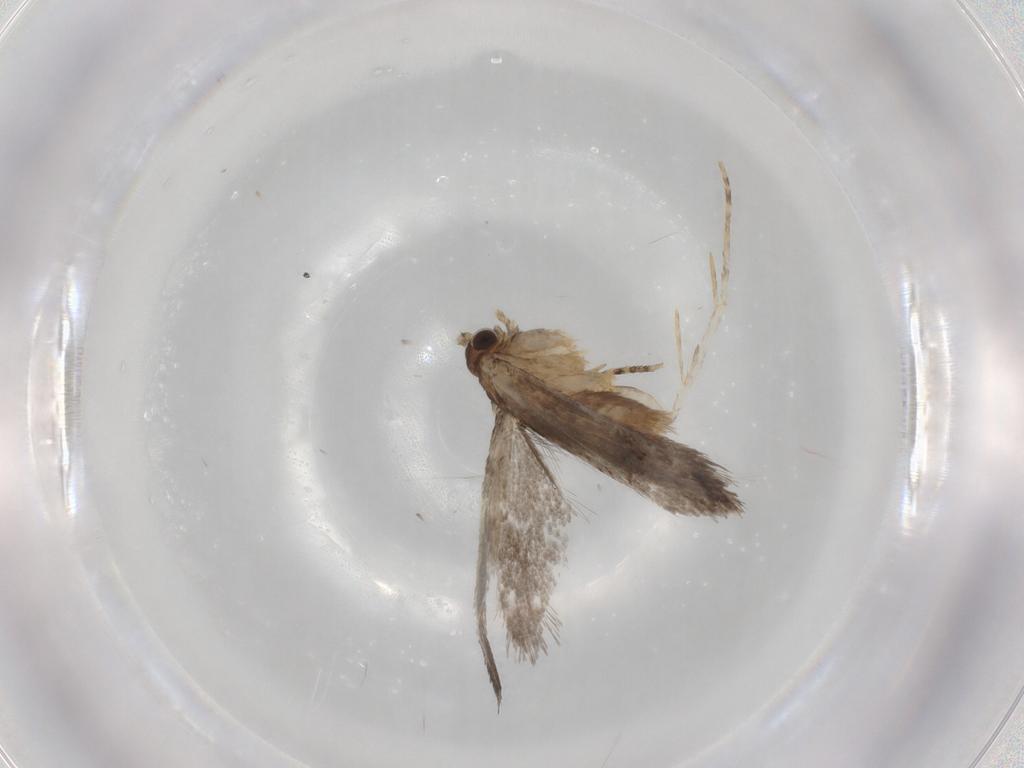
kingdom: Animalia
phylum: Arthropoda
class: Insecta
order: Lepidoptera
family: Dryadaulidae
